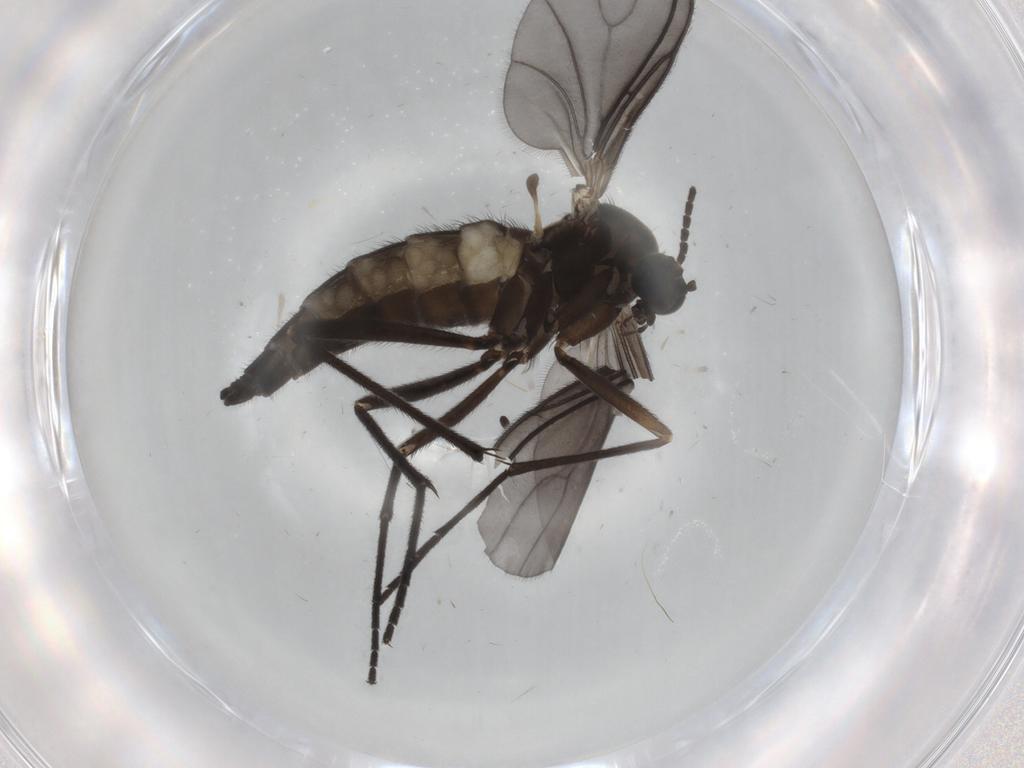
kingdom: Animalia
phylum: Arthropoda
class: Insecta
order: Diptera
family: Sciaridae
